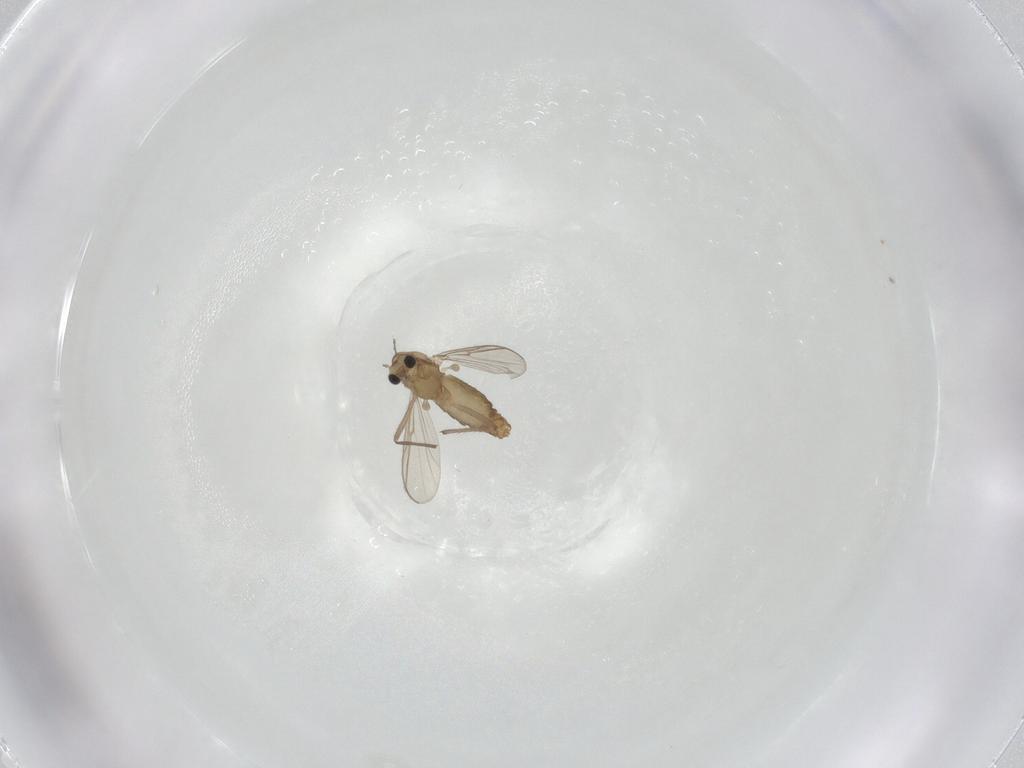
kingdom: Animalia
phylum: Arthropoda
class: Insecta
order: Diptera
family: Chironomidae
